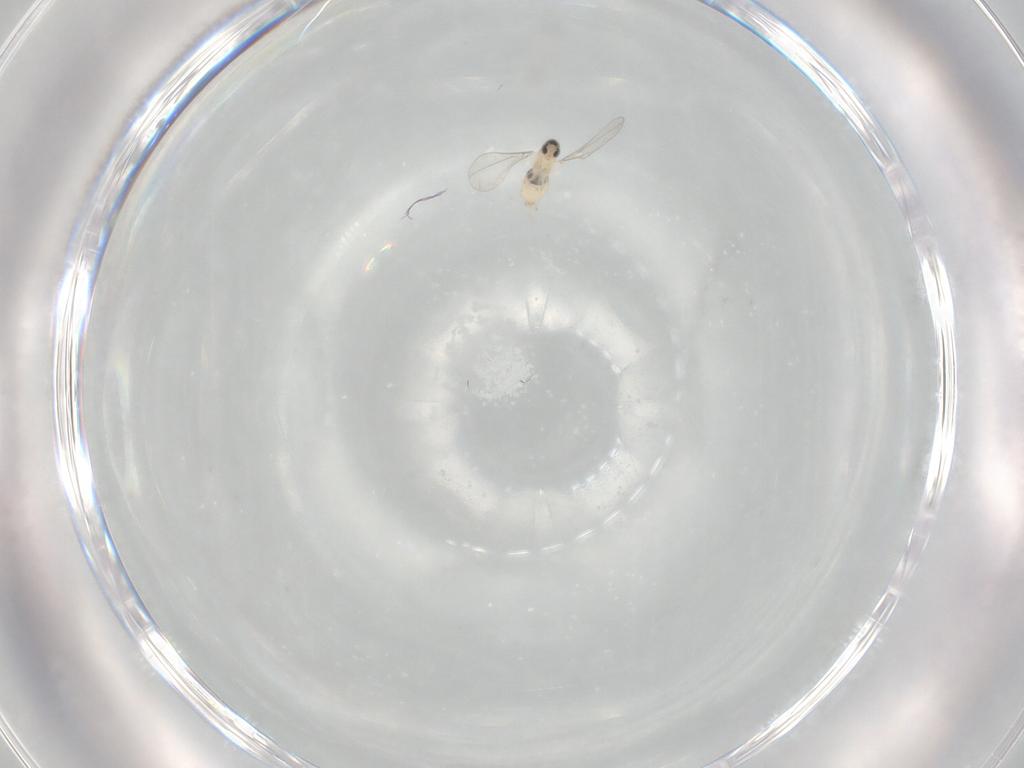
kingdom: Animalia
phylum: Arthropoda
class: Insecta
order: Diptera
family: Cecidomyiidae
